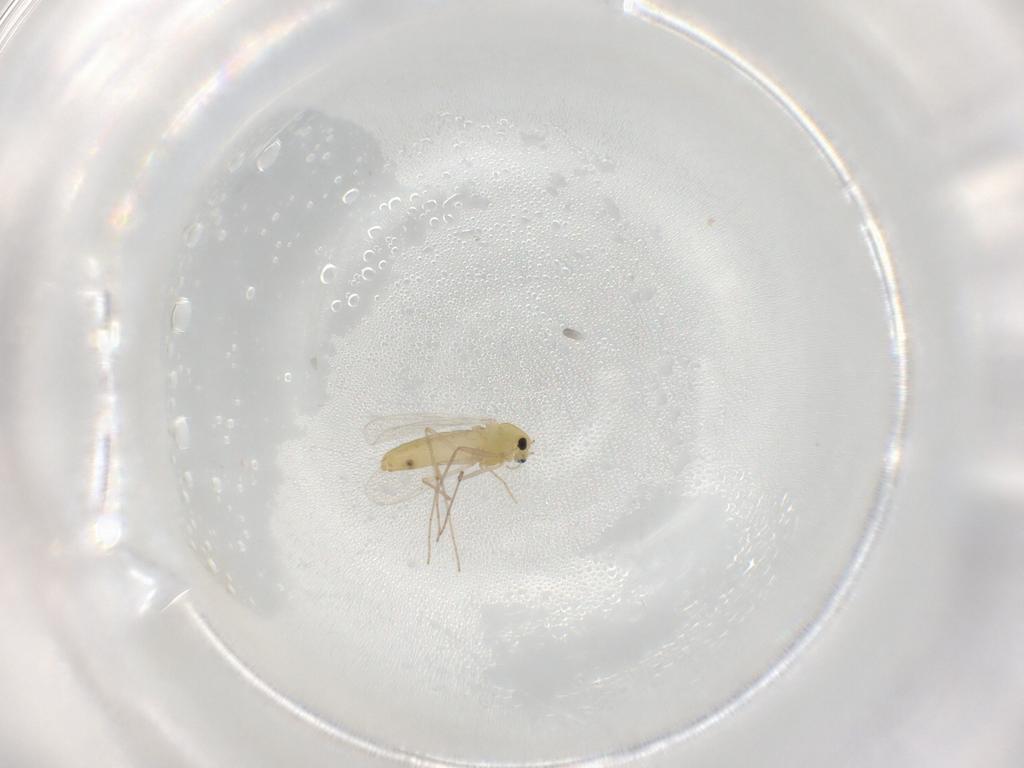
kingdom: Animalia
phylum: Arthropoda
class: Insecta
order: Diptera
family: Chironomidae
